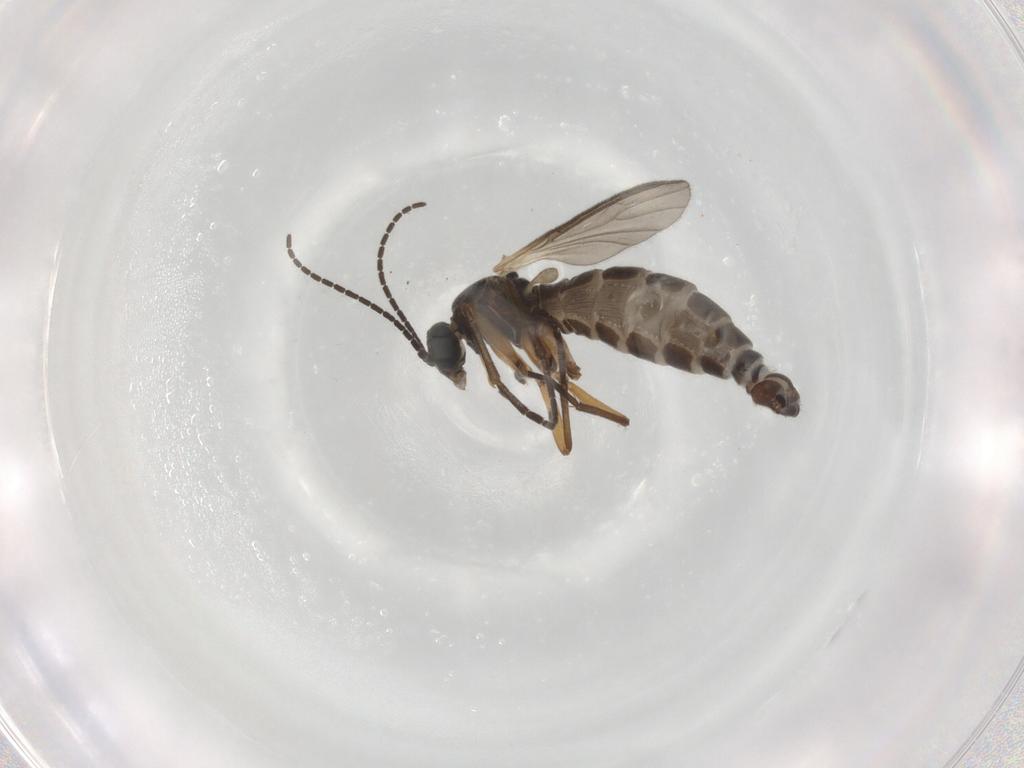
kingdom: Animalia
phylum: Arthropoda
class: Insecta
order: Diptera
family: Sciaridae
